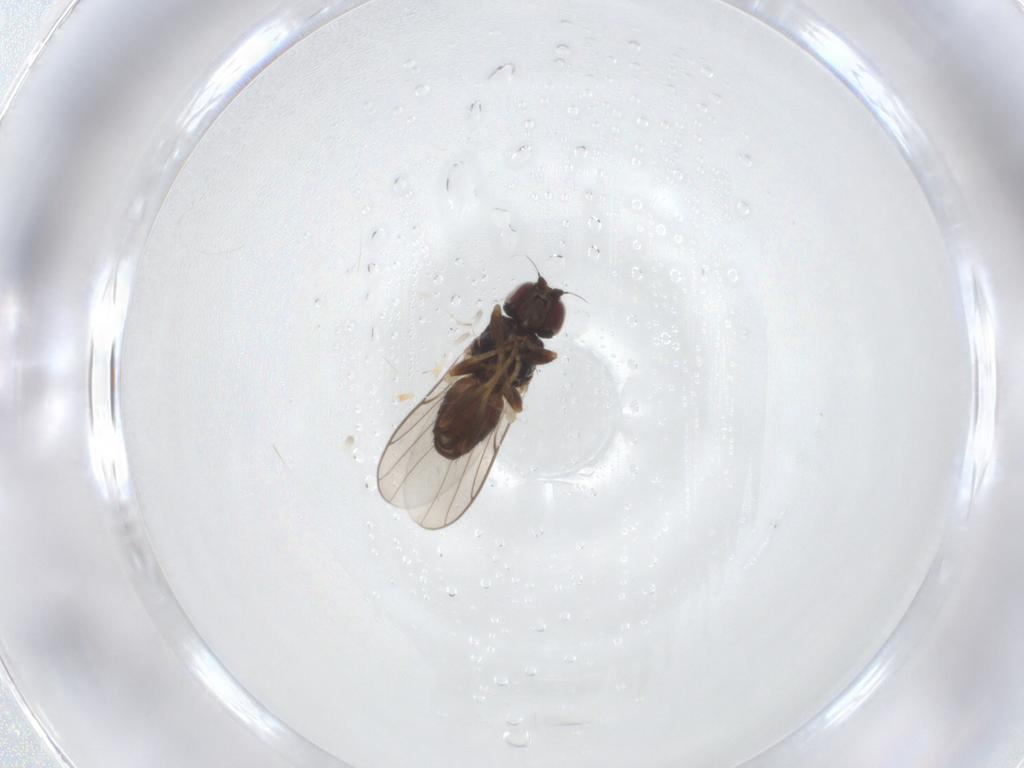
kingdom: Animalia
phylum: Arthropoda
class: Insecta
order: Diptera
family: Chloropidae
